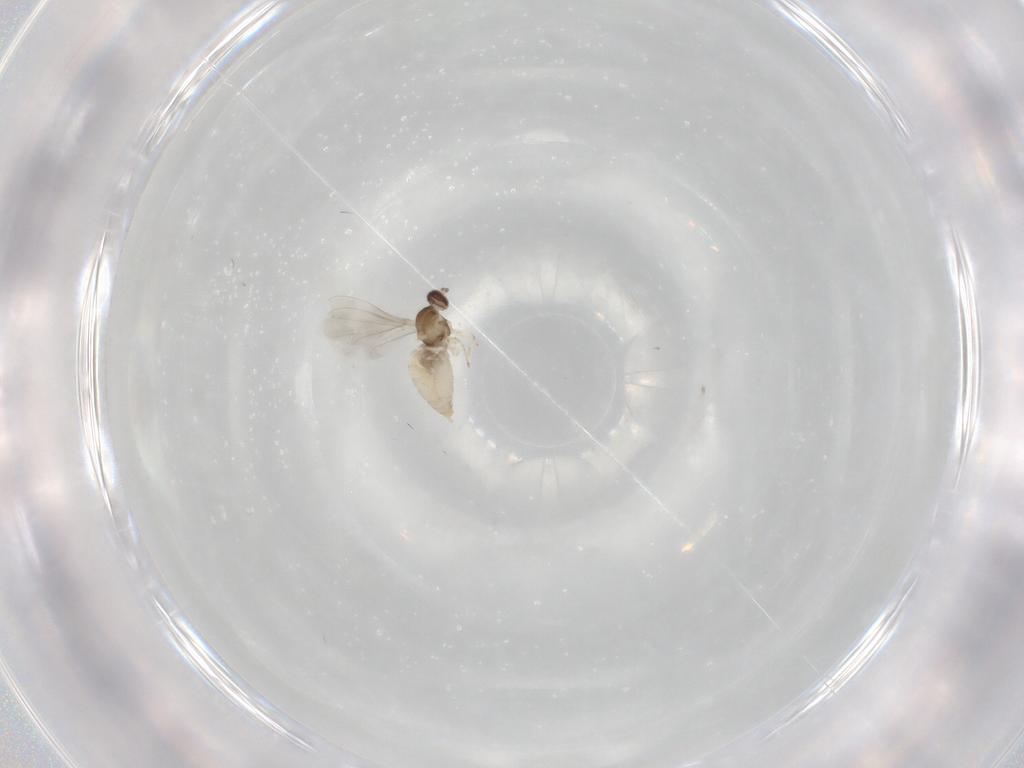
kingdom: Animalia
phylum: Arthropoda
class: Insecta
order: Diptera
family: Cecidomyiidae
